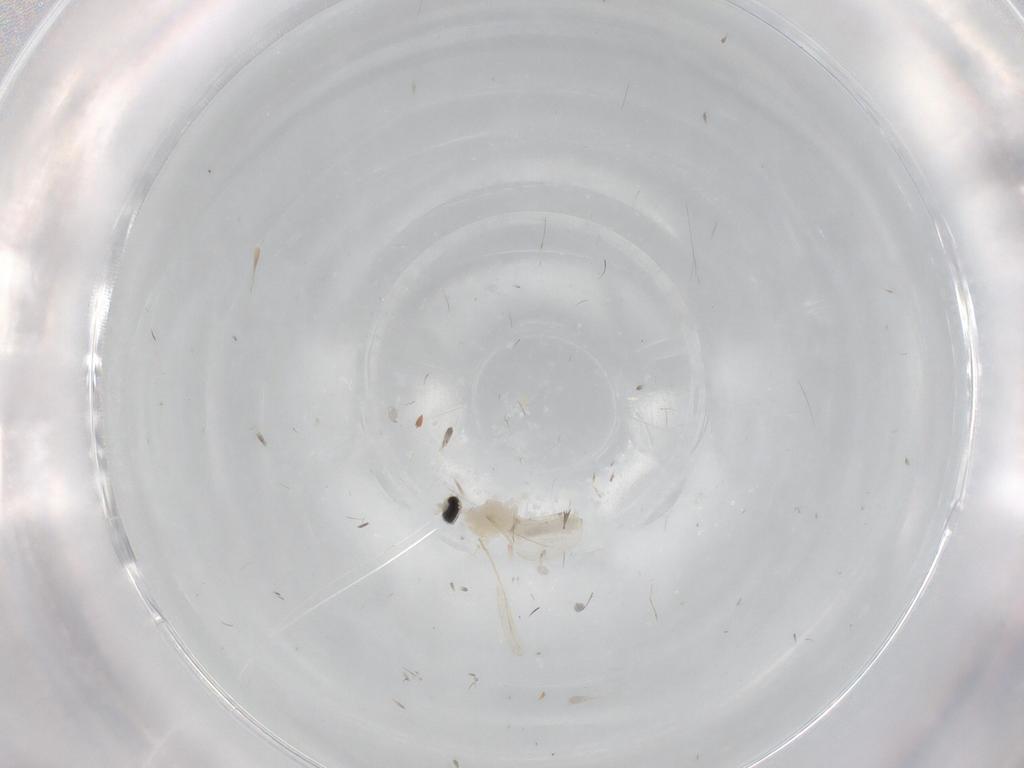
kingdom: Animalia
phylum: Arthropoda
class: Insecta
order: Diptera
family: Cecidomyiidae
